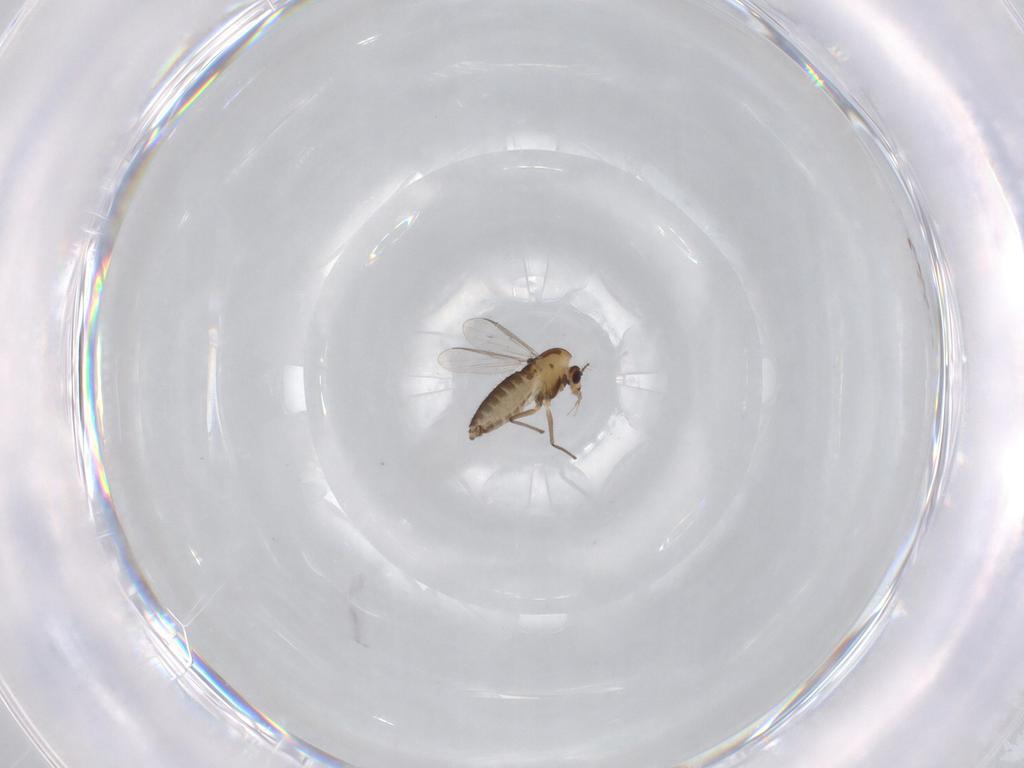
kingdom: Animalia
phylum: Arthropoda
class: Insecta
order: Diptera
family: Chironomidae
